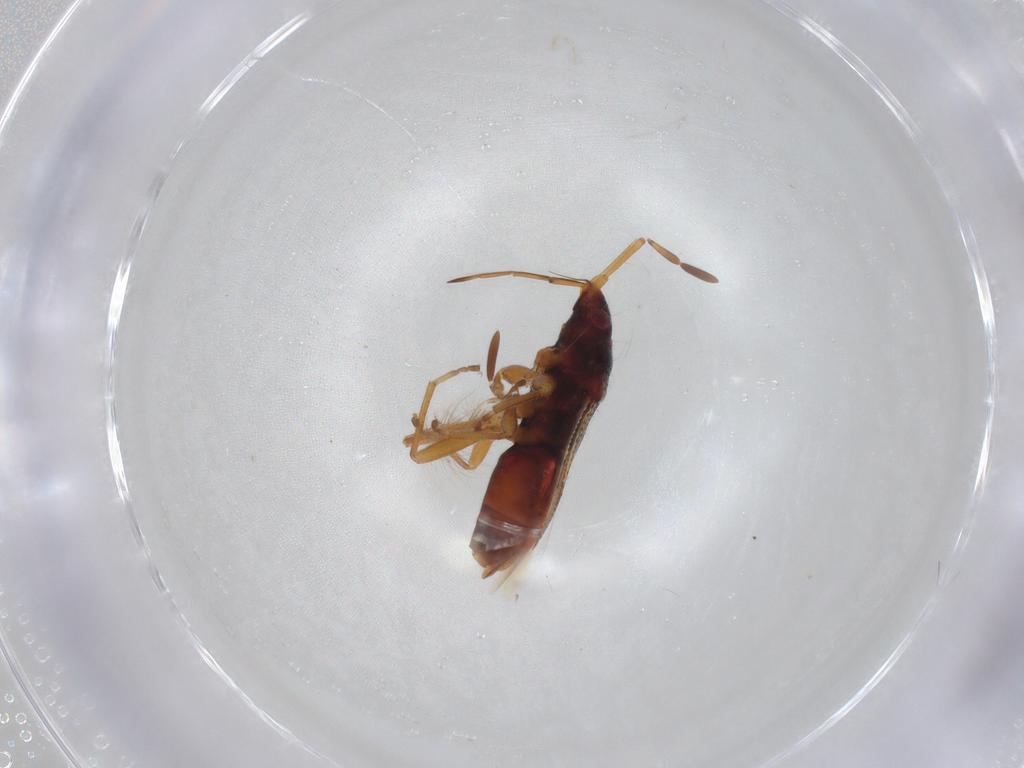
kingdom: Animalia
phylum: Arthropoda
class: Insecta
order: Hemiptera
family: Rhyparochromidae
